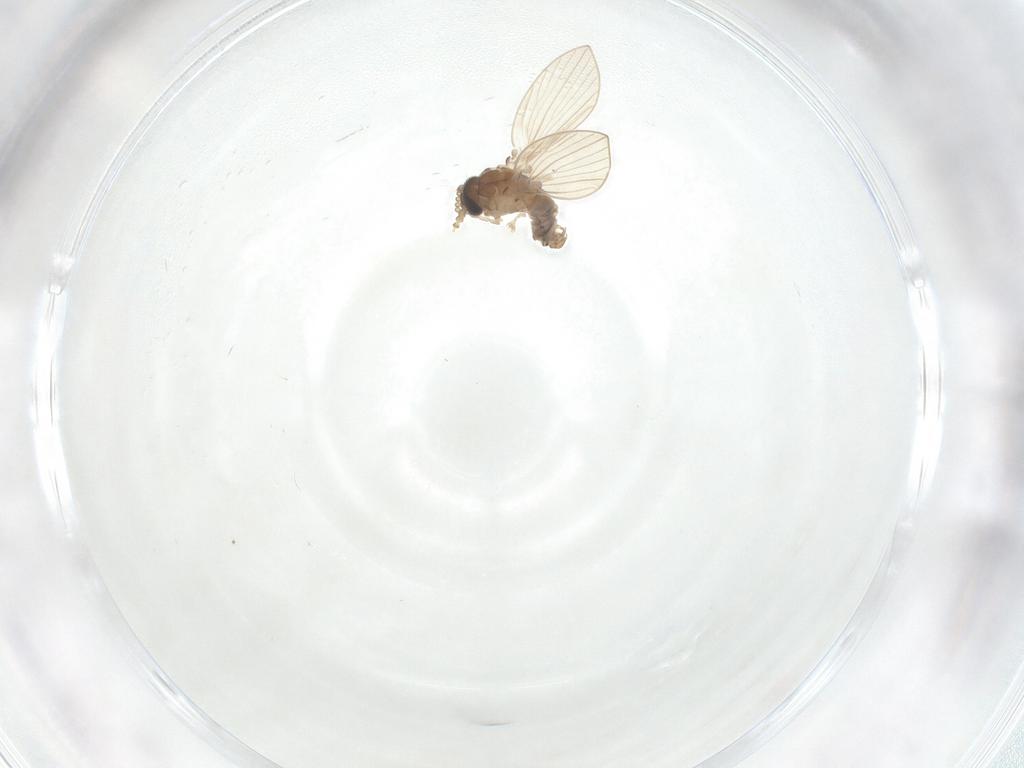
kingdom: Animalia
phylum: Arthropoda
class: Insecta
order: Diptera
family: Psychodidae
